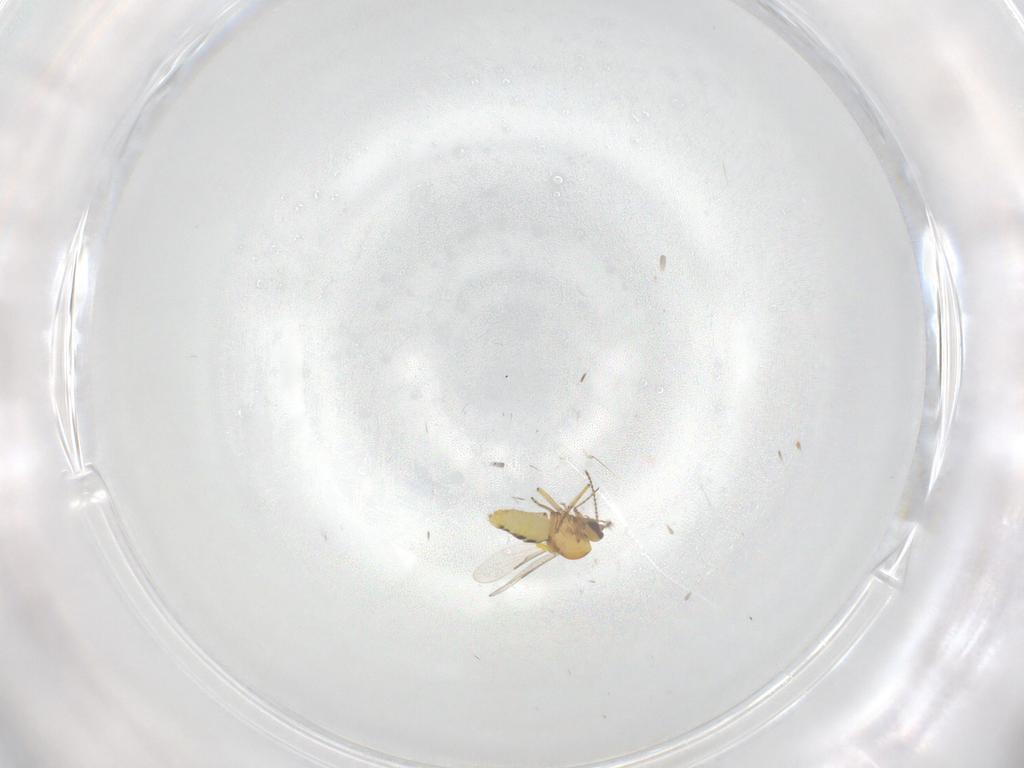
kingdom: Animalia
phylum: Arthropoda
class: Insecta
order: Diptera
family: Ceratopogonidae
